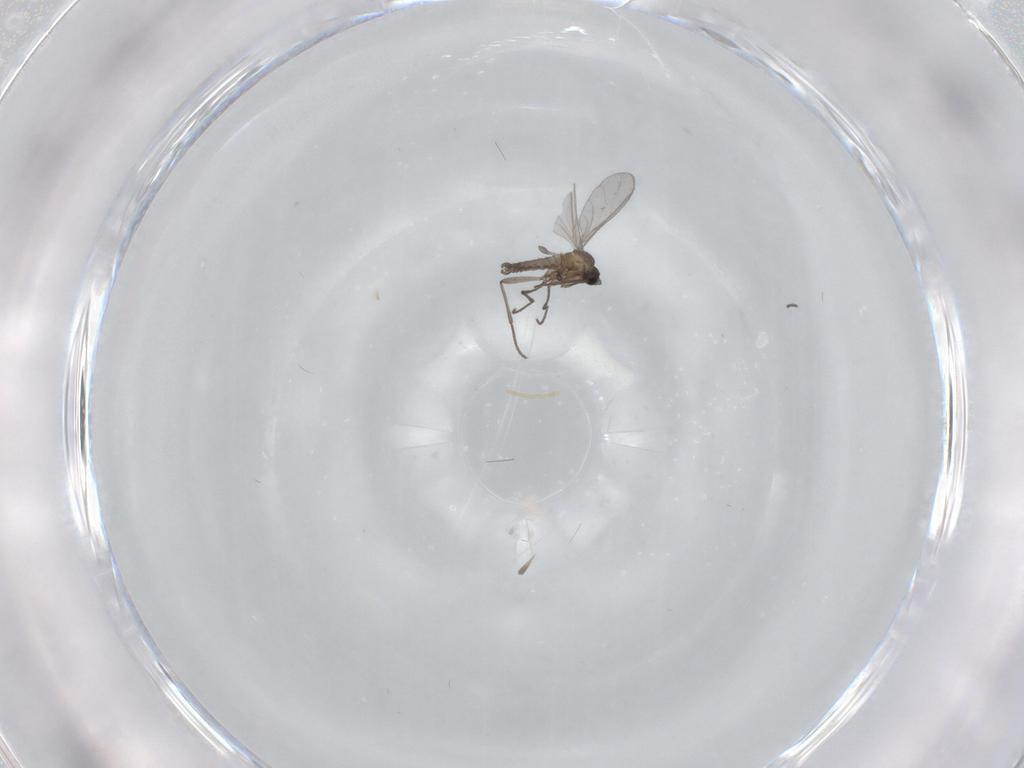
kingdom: Animalia
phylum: Arthropoda
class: Insecta
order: Diptera
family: Sciaridae
